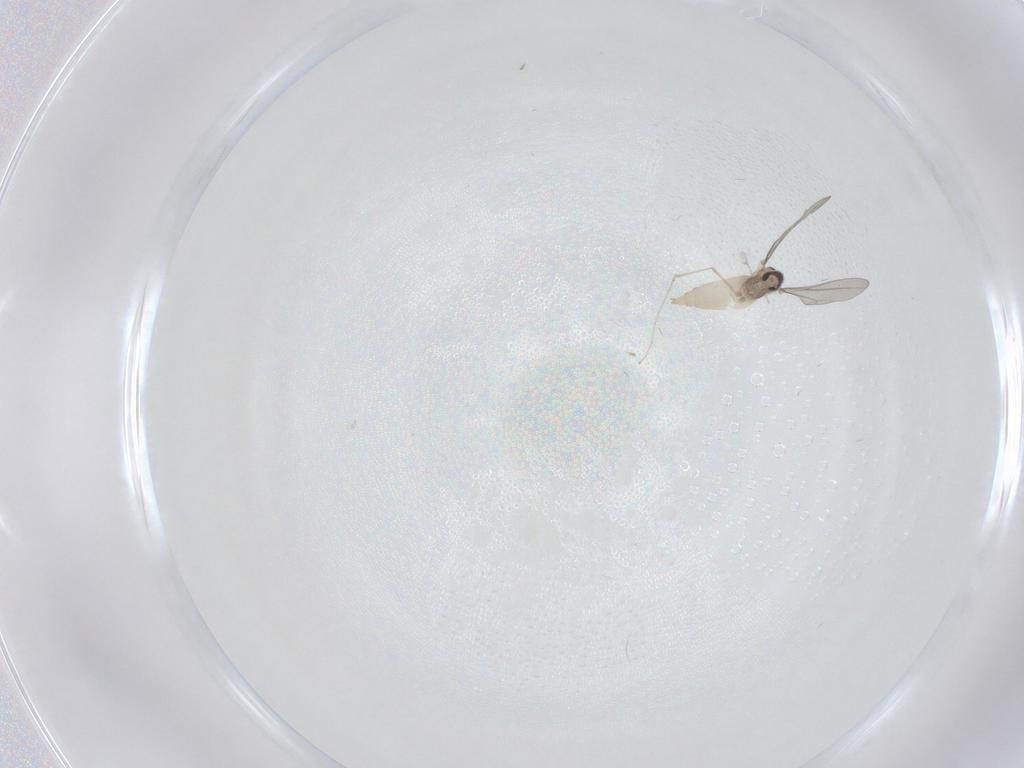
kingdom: Animalia
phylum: Arthropoda
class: Insecta
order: Diptera
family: Cecidomyiidae
